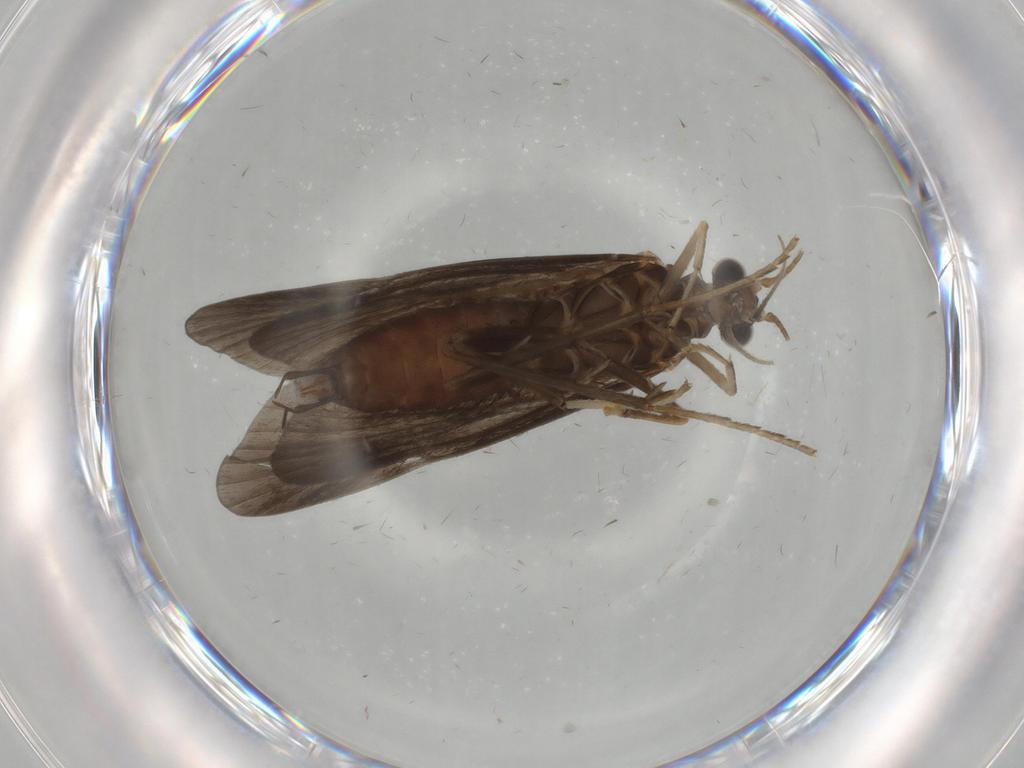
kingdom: Animalia
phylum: Arthropoda
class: Insecta
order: Trichoptera
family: Hydropsychidae
